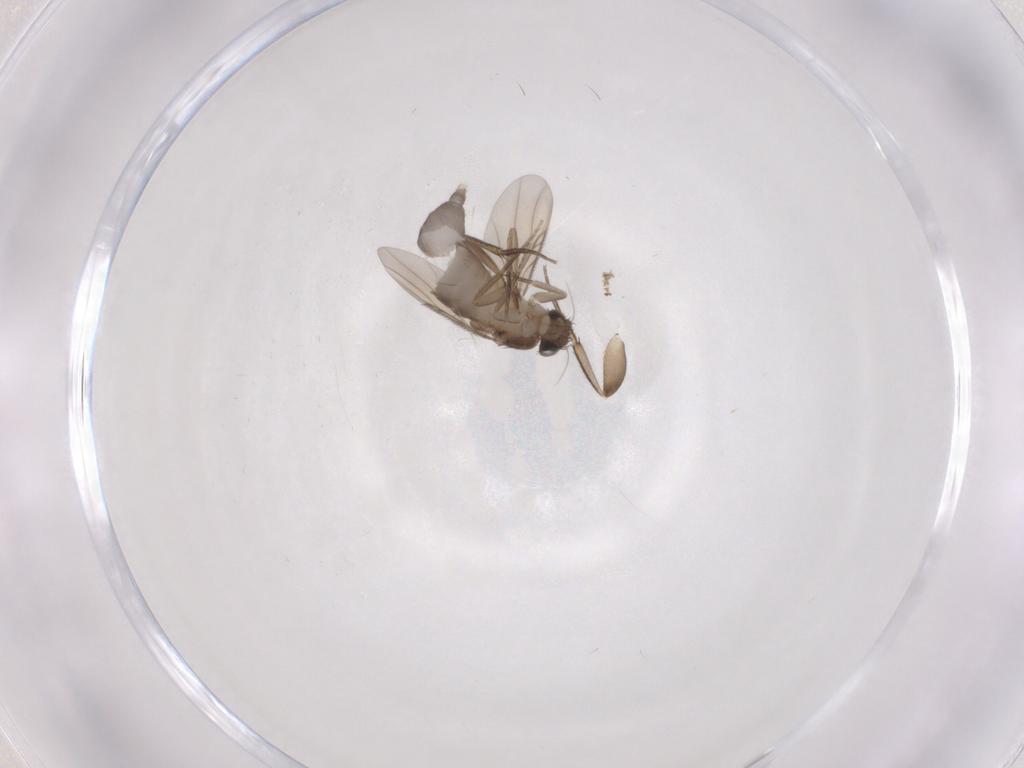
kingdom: Animalia
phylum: Arthropoda
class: Insecta
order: Diptera
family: Phoridae
